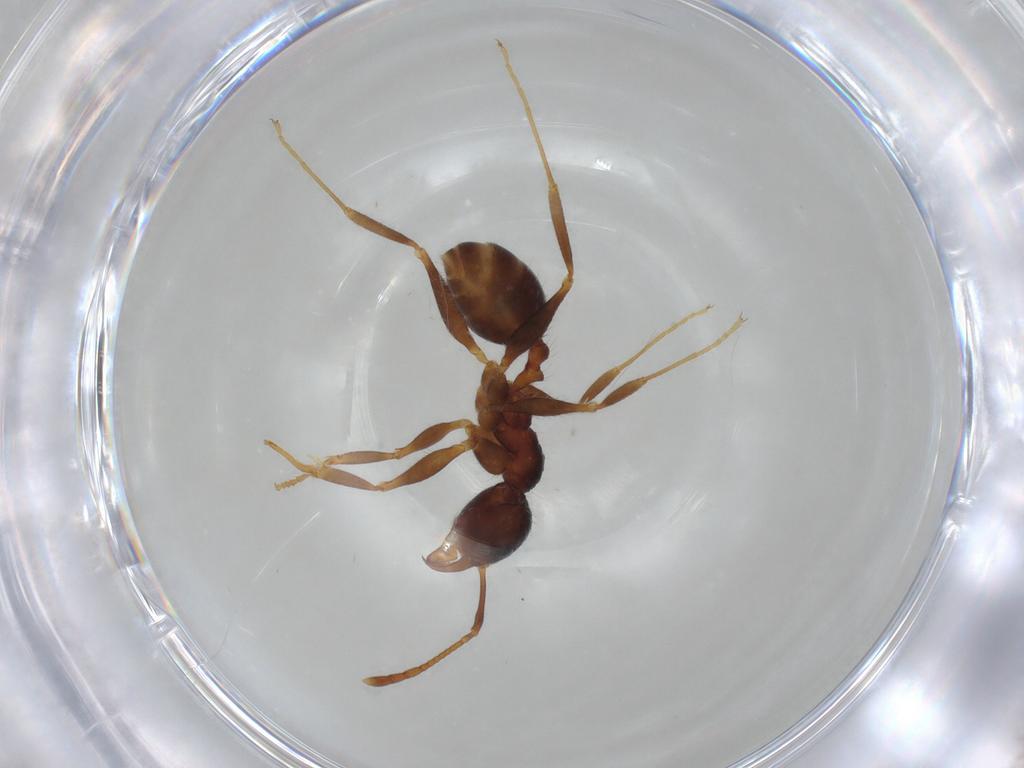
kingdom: Animalia
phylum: Arthropoda
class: Insecta
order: Hymenoptera
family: Formicidae
